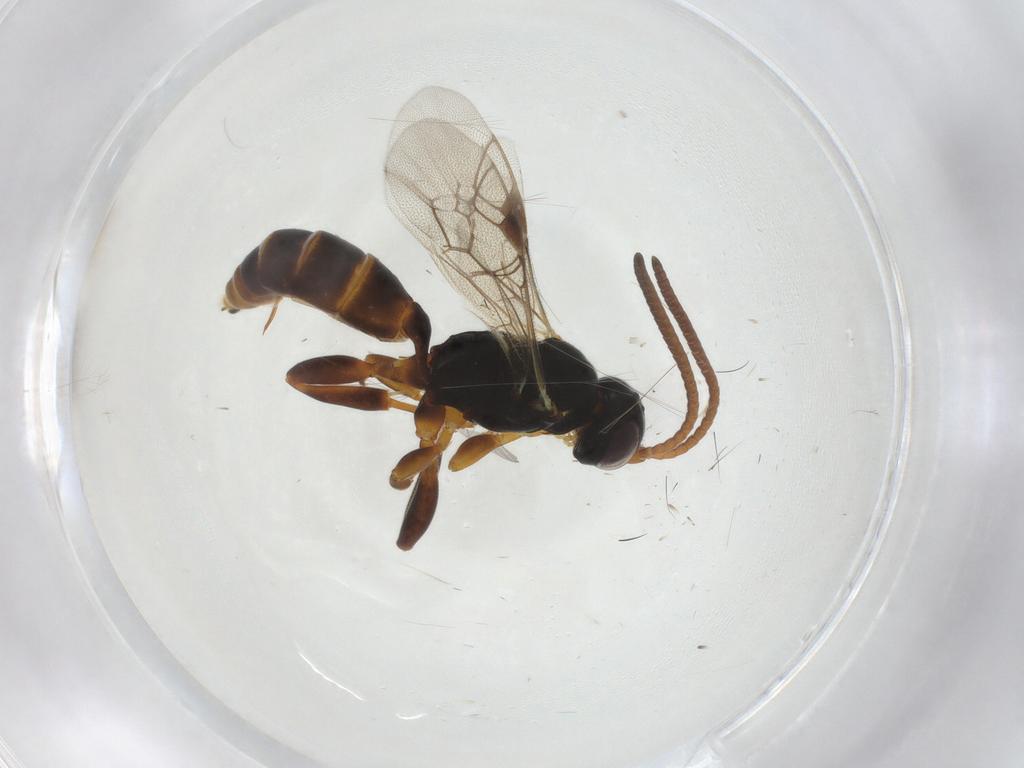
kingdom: Animalia
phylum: Arthropoda
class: Insecta
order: Hymenoptera
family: Ichneumonidae
